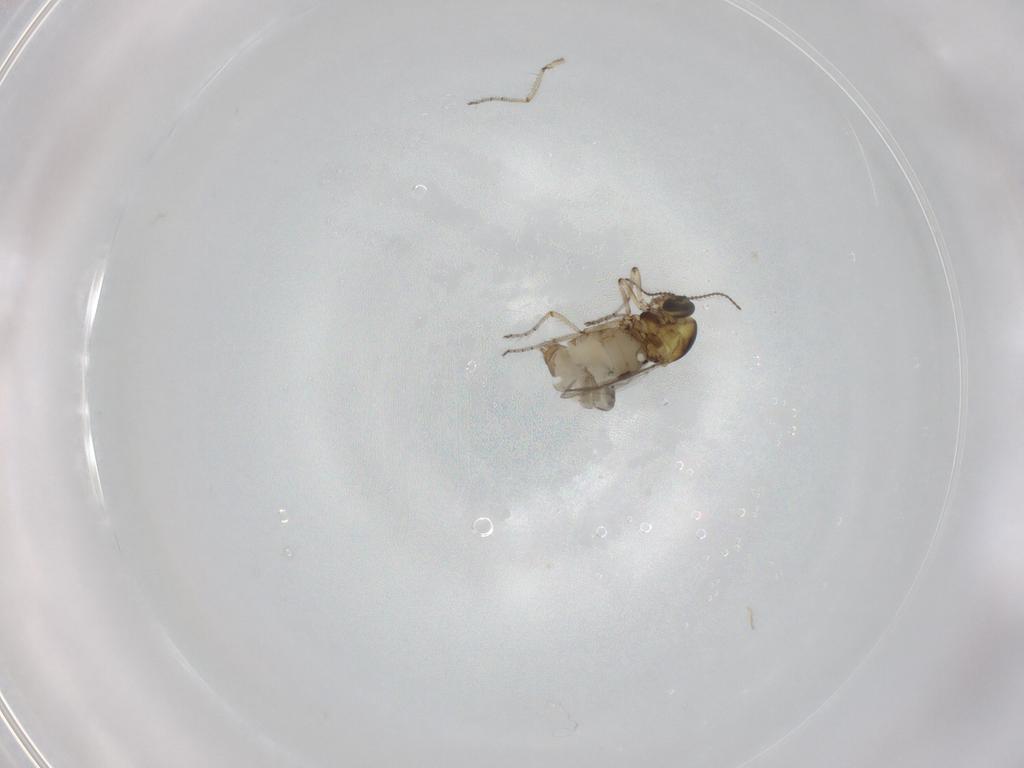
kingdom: Animalia
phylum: Arthropoda
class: Insecta
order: Diptera
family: Ceratopogonidae
